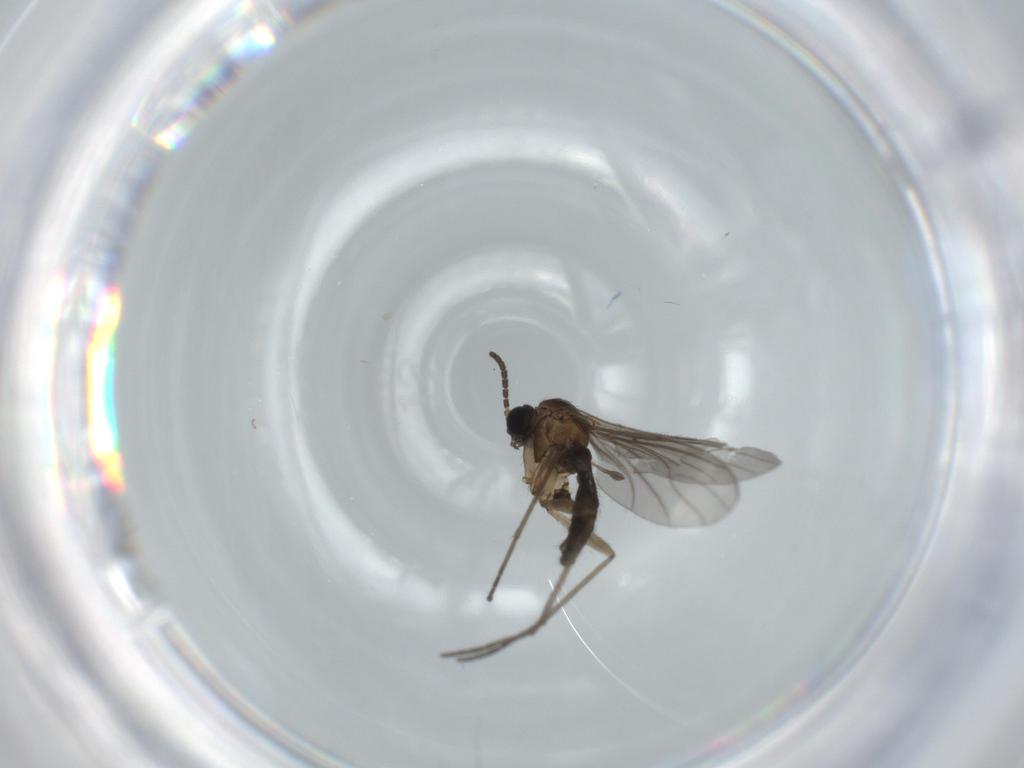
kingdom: Animalia
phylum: Arthropoda
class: Insecta
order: Diptera
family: Sciaridae
